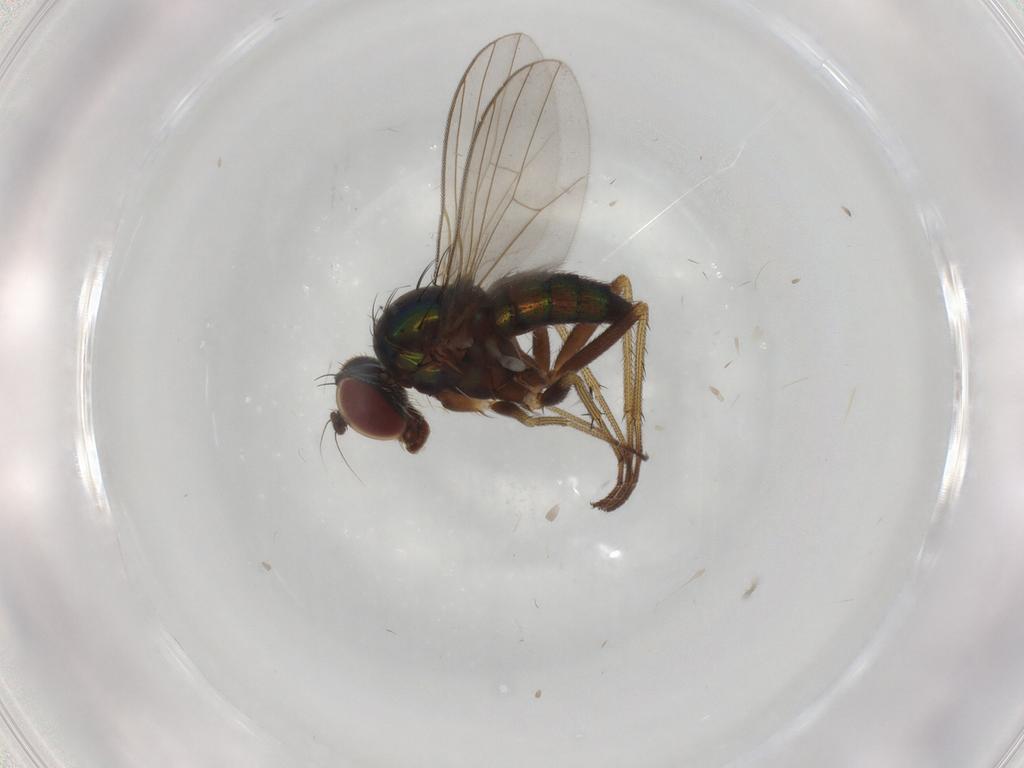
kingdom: Animalia
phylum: Arthropoda
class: Insecta
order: Diptera
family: Dolichopodidae
